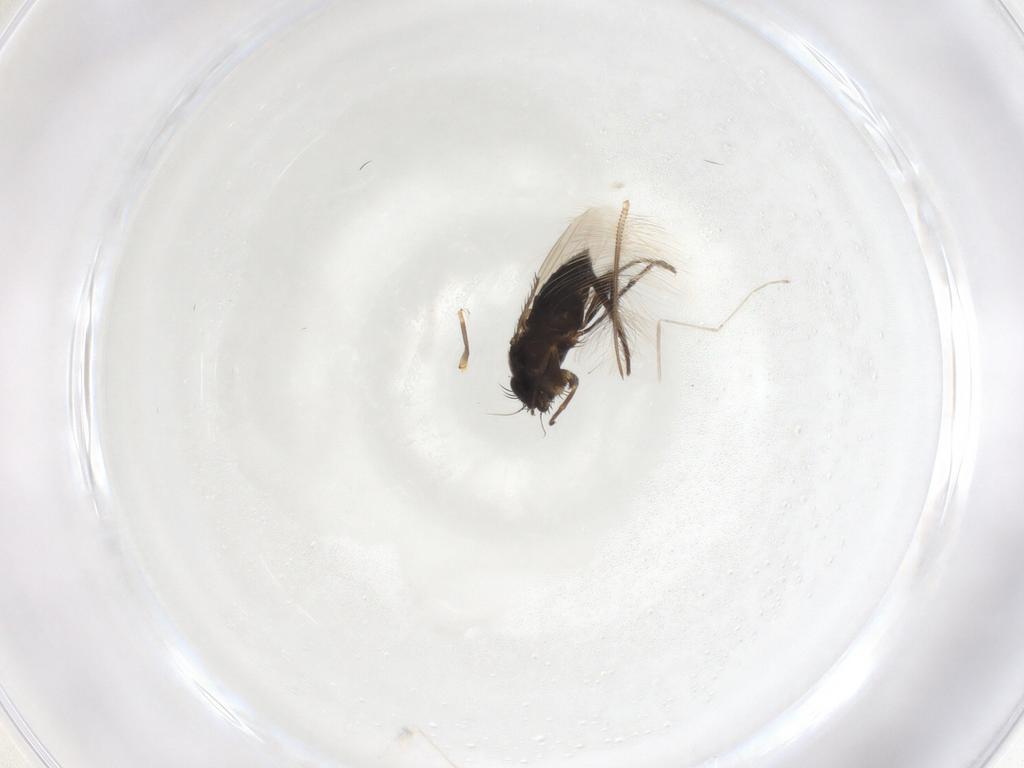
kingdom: Animalia
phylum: Arthropoda
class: Insecta
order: Diptera
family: Phoridae
